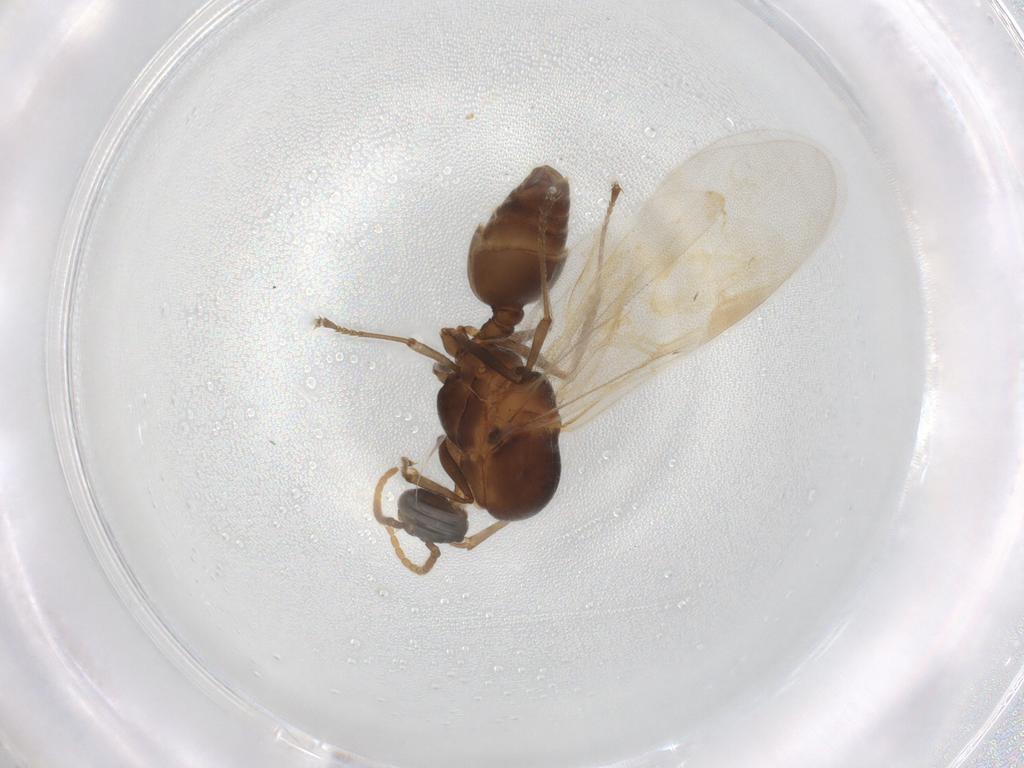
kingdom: Animalia
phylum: Arthropoda
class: Insecta
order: Hymenoptera
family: Formicidae
